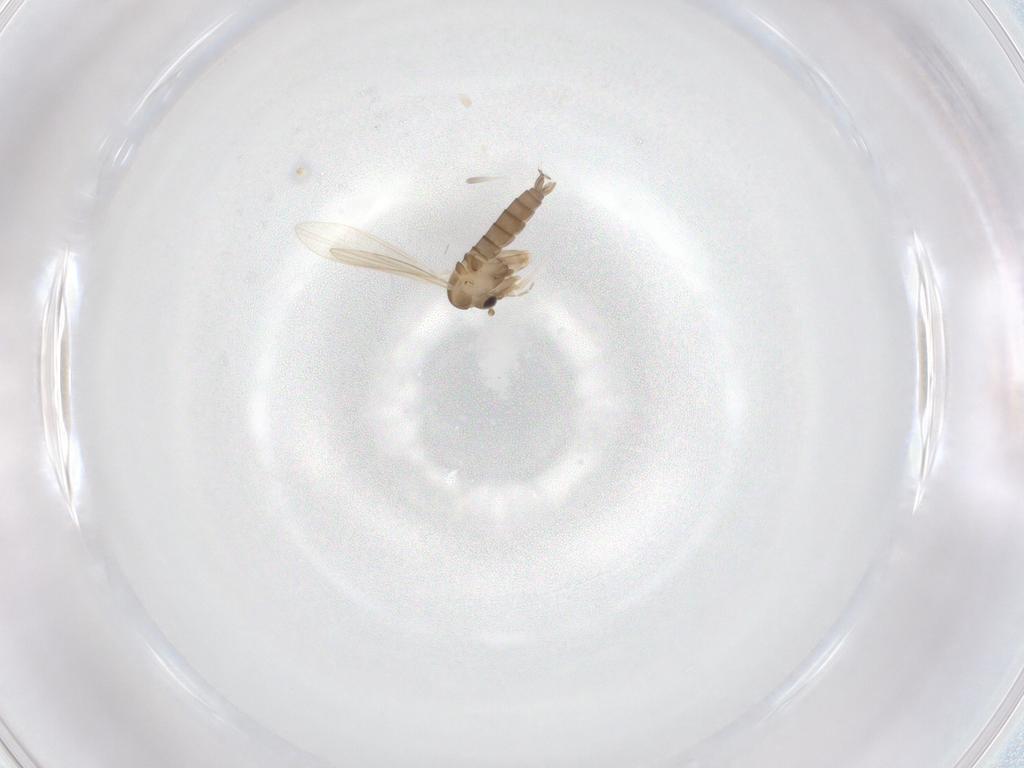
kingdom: Animalia
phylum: Arthropoda
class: Insecta
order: Diptera
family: Psychodidae
